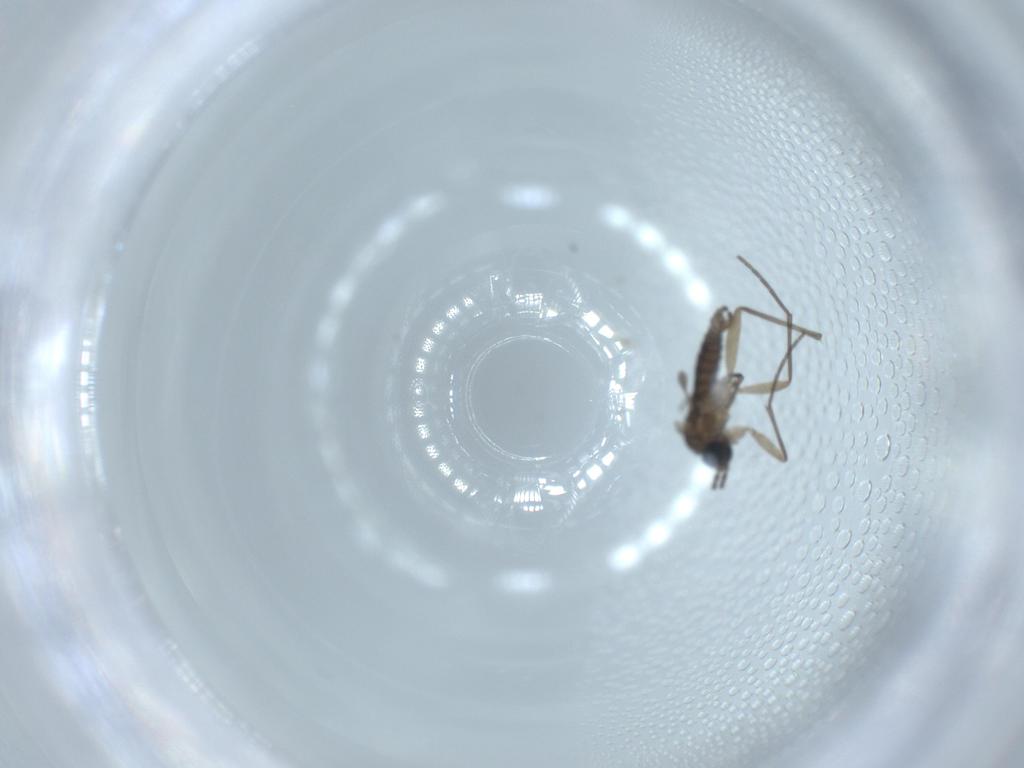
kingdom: Animalia
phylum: Arthropoda
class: Insecta
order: Diptera
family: Sciaridae
